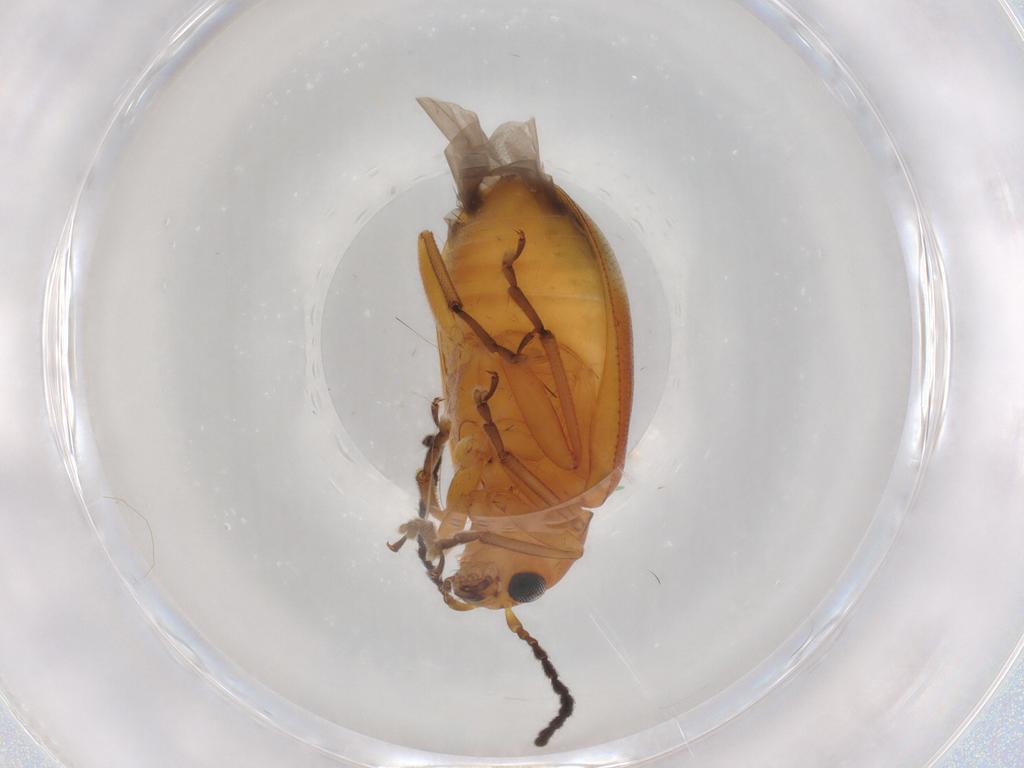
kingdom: Animalia
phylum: Arthropoda
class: Insecta
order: Coleoptera
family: Chrysomelidae
